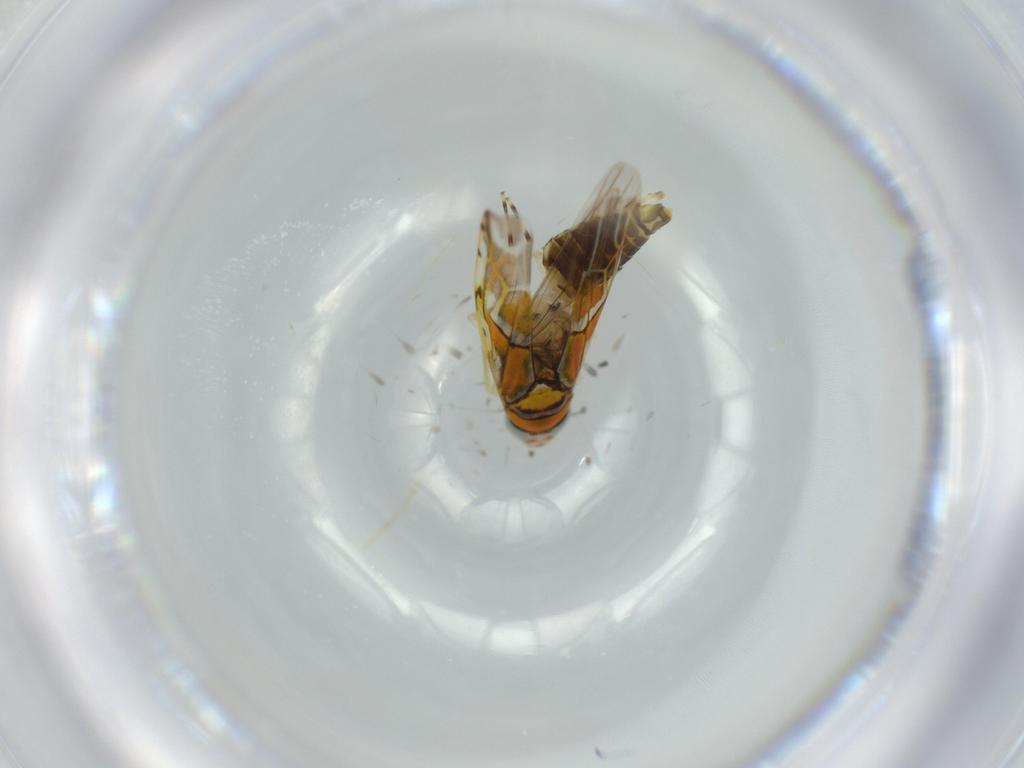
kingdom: Animalia
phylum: Arthropoda
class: Insecta
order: Hemiptera
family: Cicadellidae
